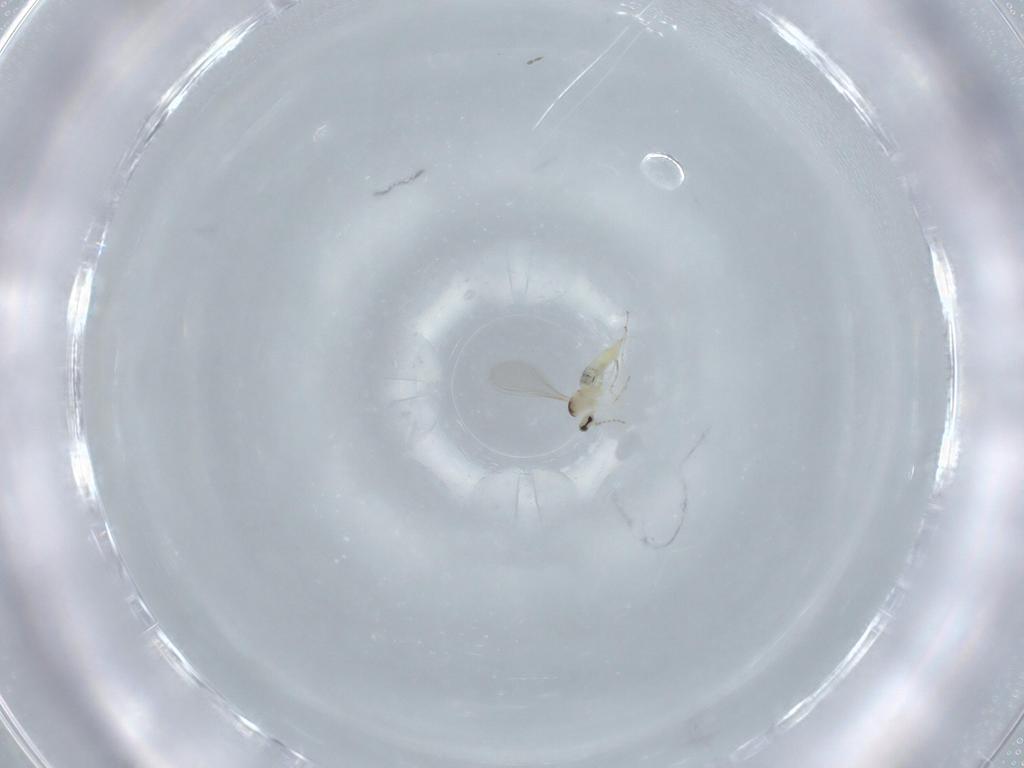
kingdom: Animalia
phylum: Arthropoda
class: Insecta
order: Diptera
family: Cecidomyiidae
